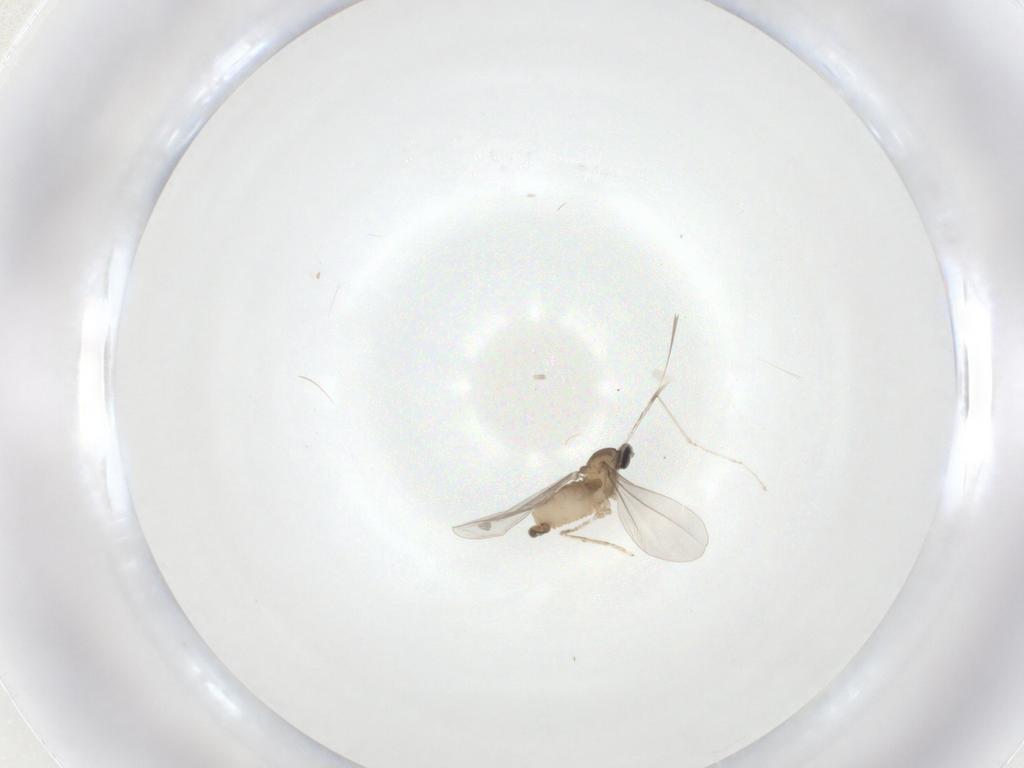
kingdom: Animalia
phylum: Arthropoda
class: Insecta
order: Diptera
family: Cecidomyiidae
